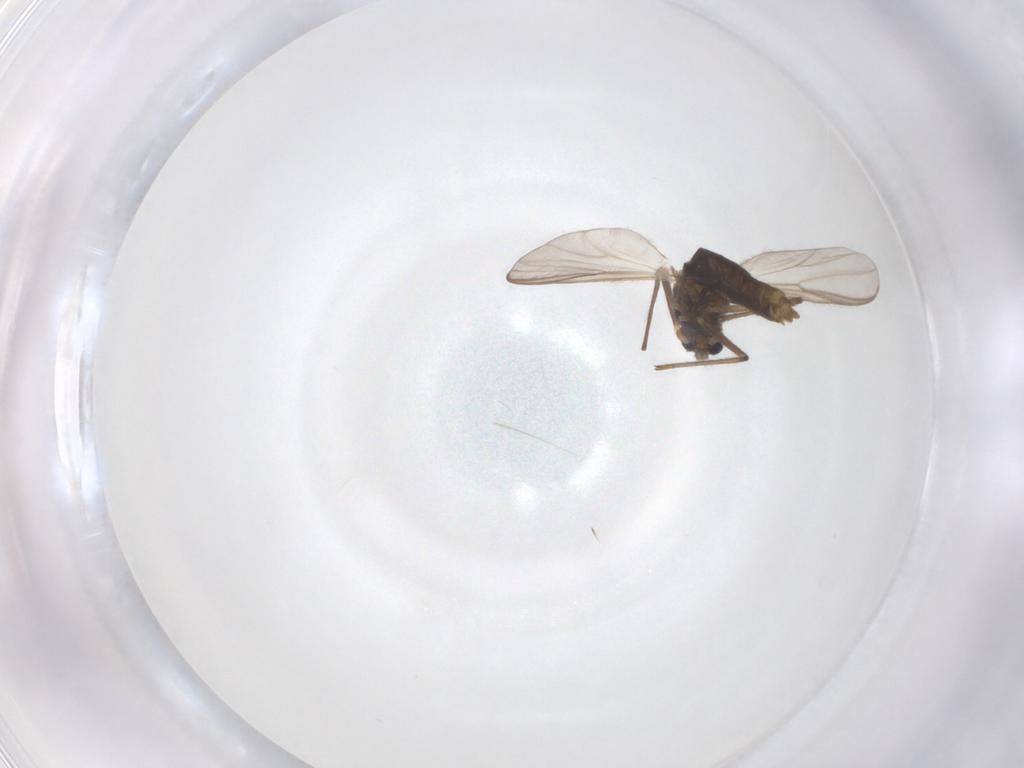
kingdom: Animalia
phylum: Arthropoda
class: Insecta
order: Diptera
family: Chironomidae
